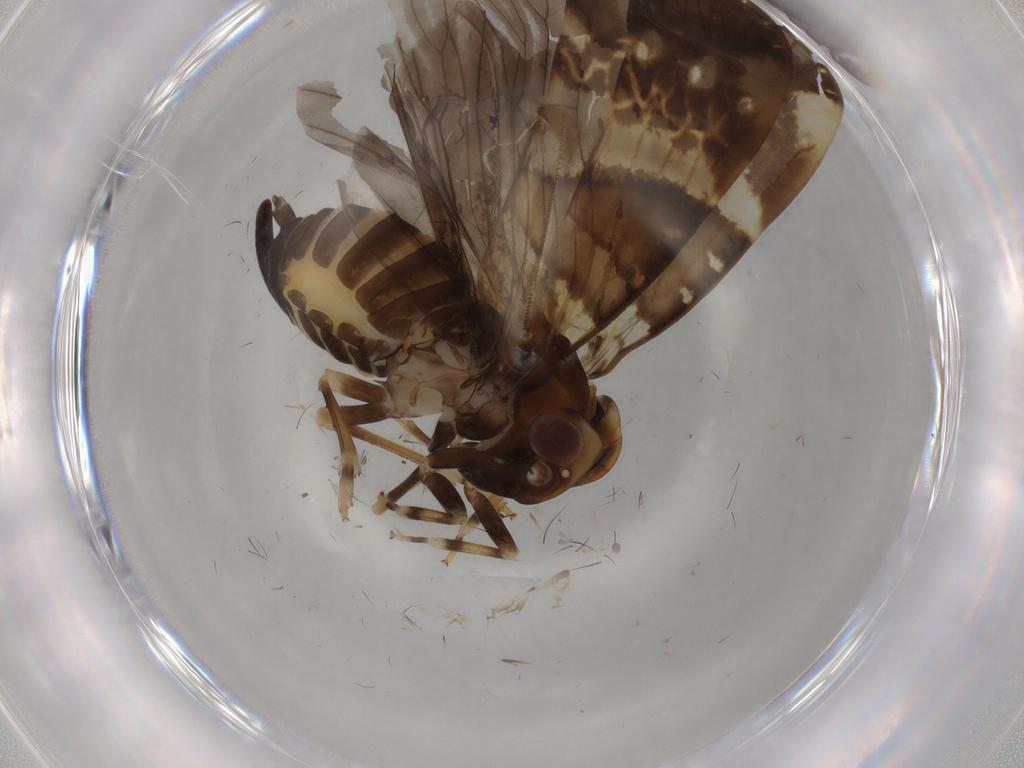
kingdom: Animalia
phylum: Arthropoda
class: Insecta
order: Hemiptera
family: Cixiidae
